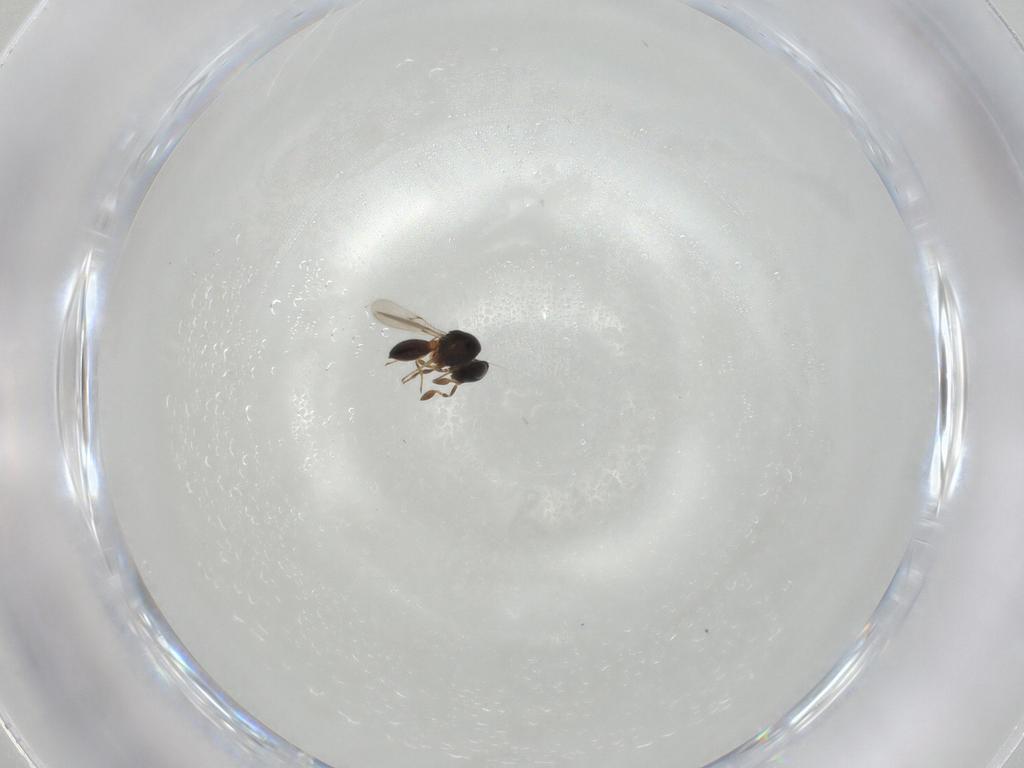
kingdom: Animalia
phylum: Arthropoda
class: Insecta
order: Hymenoptera
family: Scelionidae
